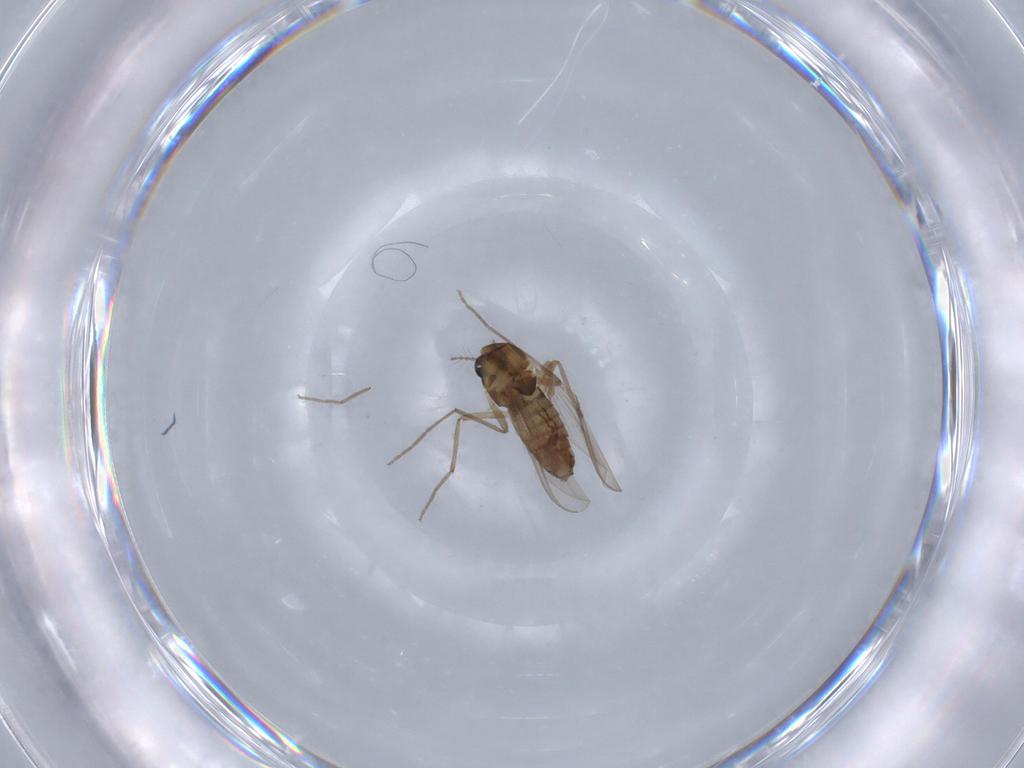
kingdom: Animalia
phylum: Arthropoda
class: Insecta
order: Diptera
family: Chironomidae
